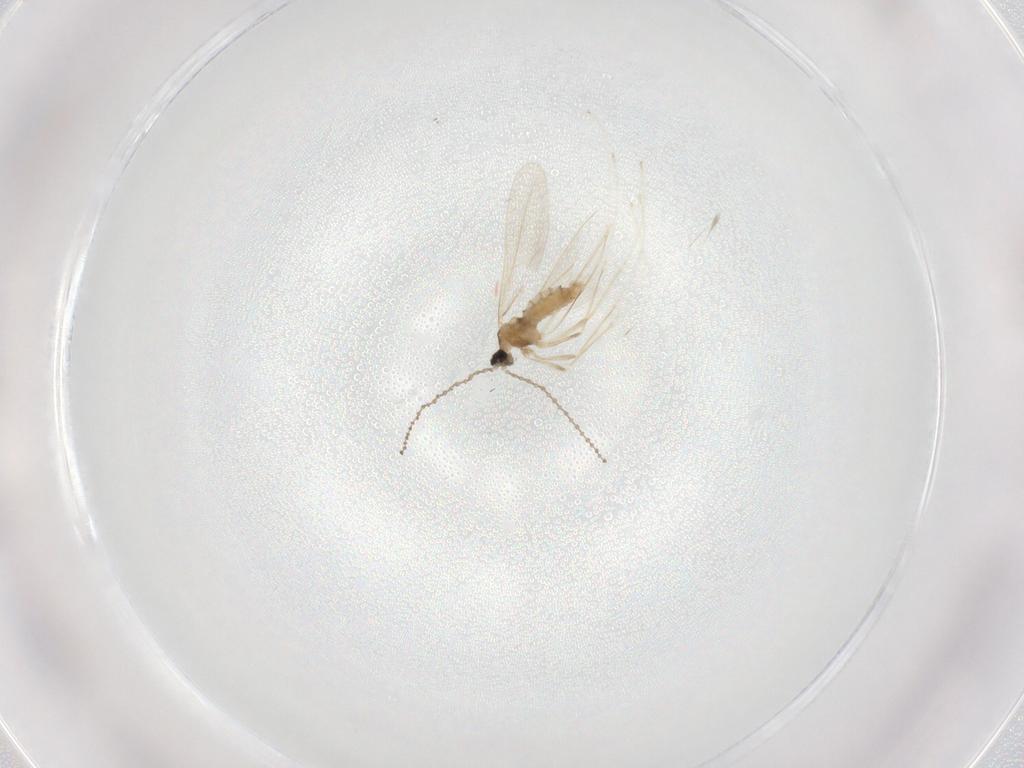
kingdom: Animalia
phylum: Arthropoda
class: Insecta
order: Diptera
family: Cecidomyiidae
